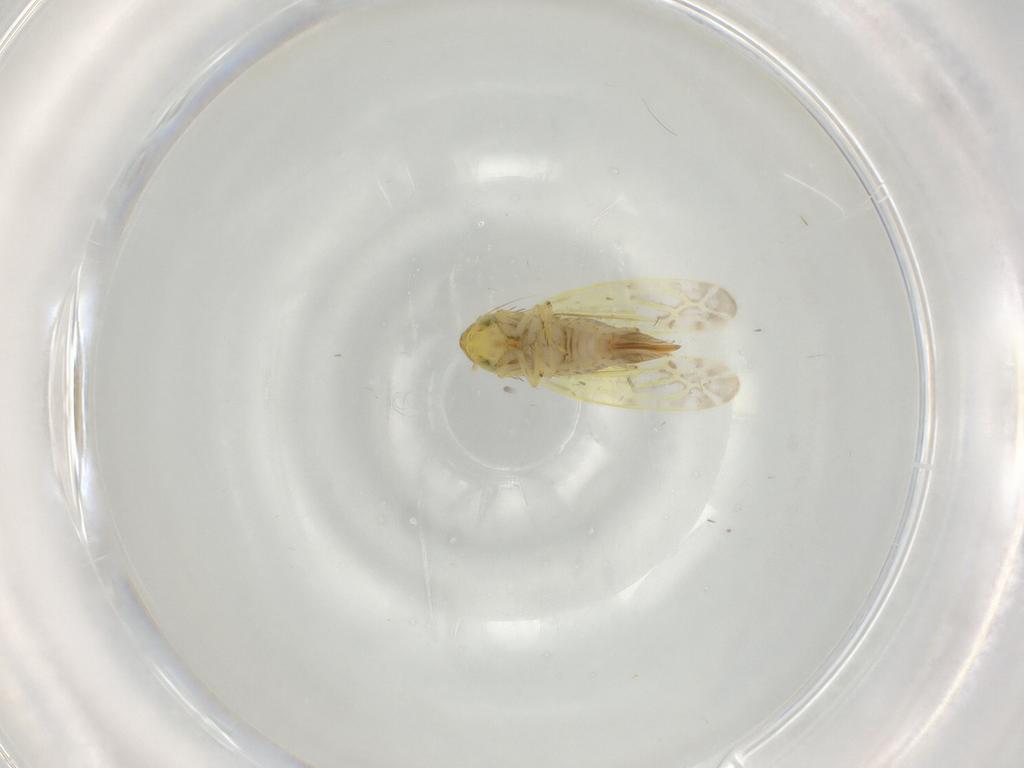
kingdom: Animalia
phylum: Arthropoda
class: Insecta
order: Hemiptera
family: Cicadellidae
